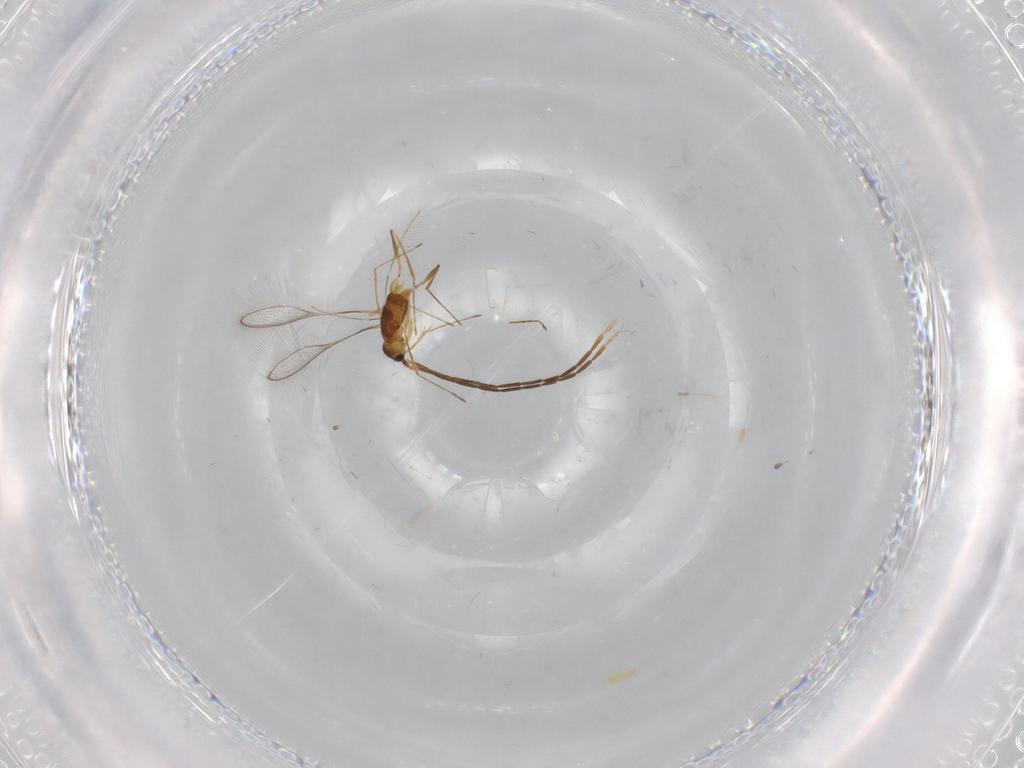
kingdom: Animalia
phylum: Arthropoda
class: Insecta
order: Hymenoptera
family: Mymaridae
